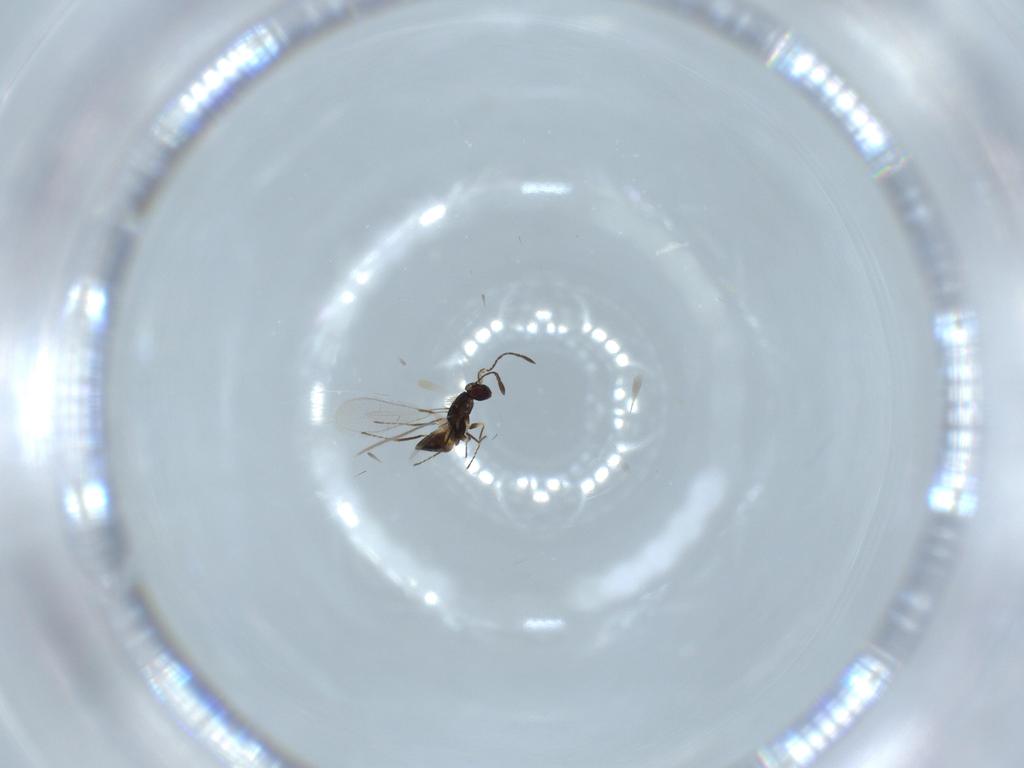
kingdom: Animalia
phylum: Arthropoda
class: Insecta
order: Hymenoptera
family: Mymaridae
